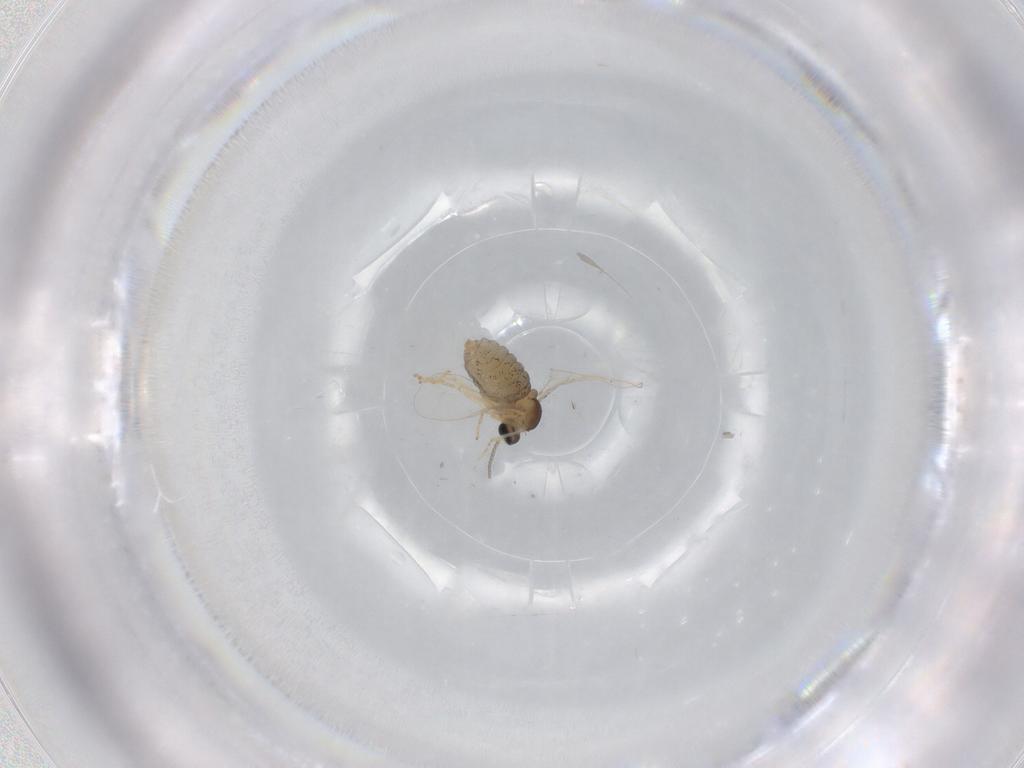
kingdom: Animalia
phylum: Arthropoda
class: Insecta
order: Diptera
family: Cecidomyiidae
